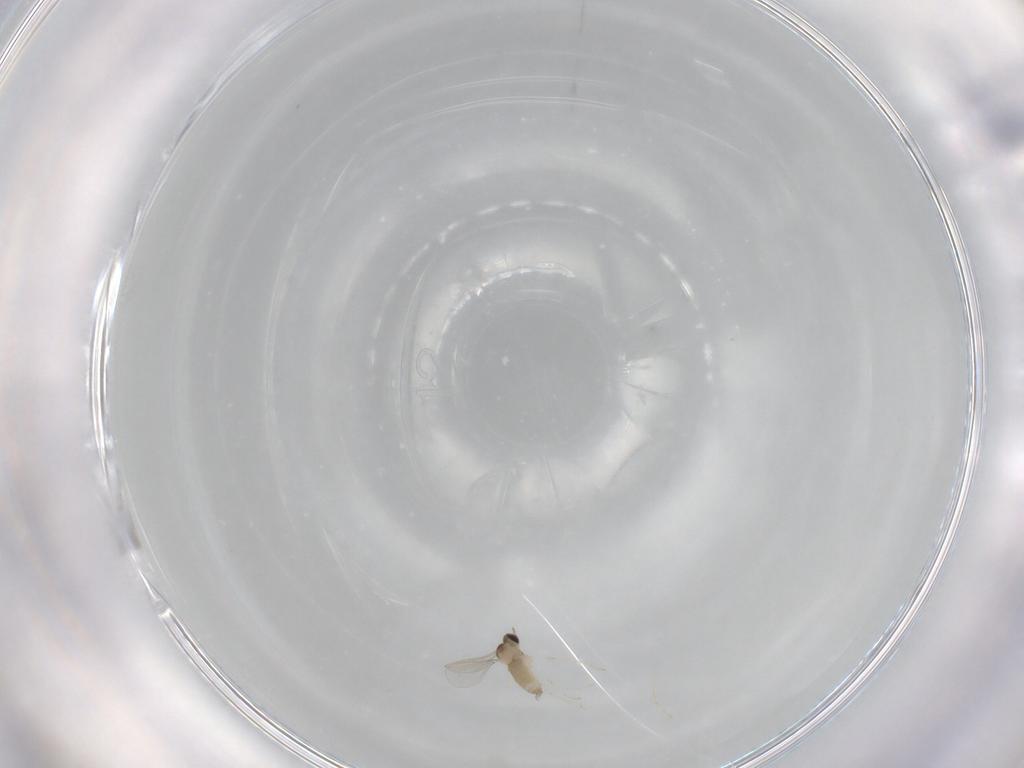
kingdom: Animalia
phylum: Arthropoda
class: Insecta
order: Diptera
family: Cecidomyiidae
